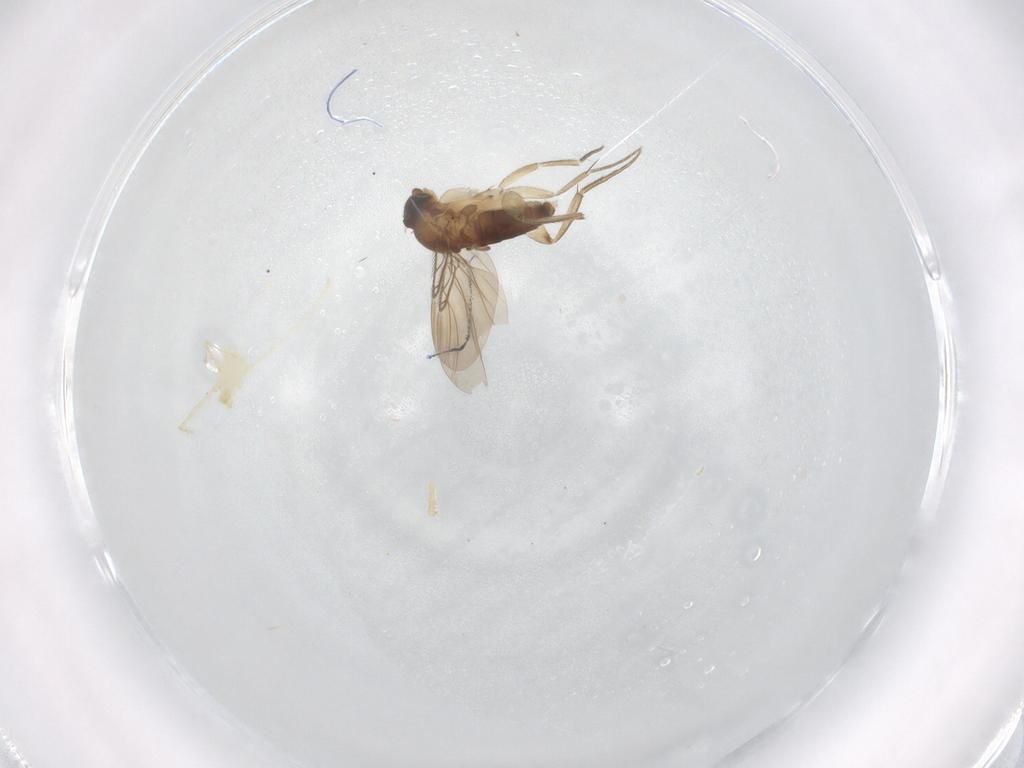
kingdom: Animalia
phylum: Arthropoda
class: Insecta
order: Diptera
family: Phoridae
